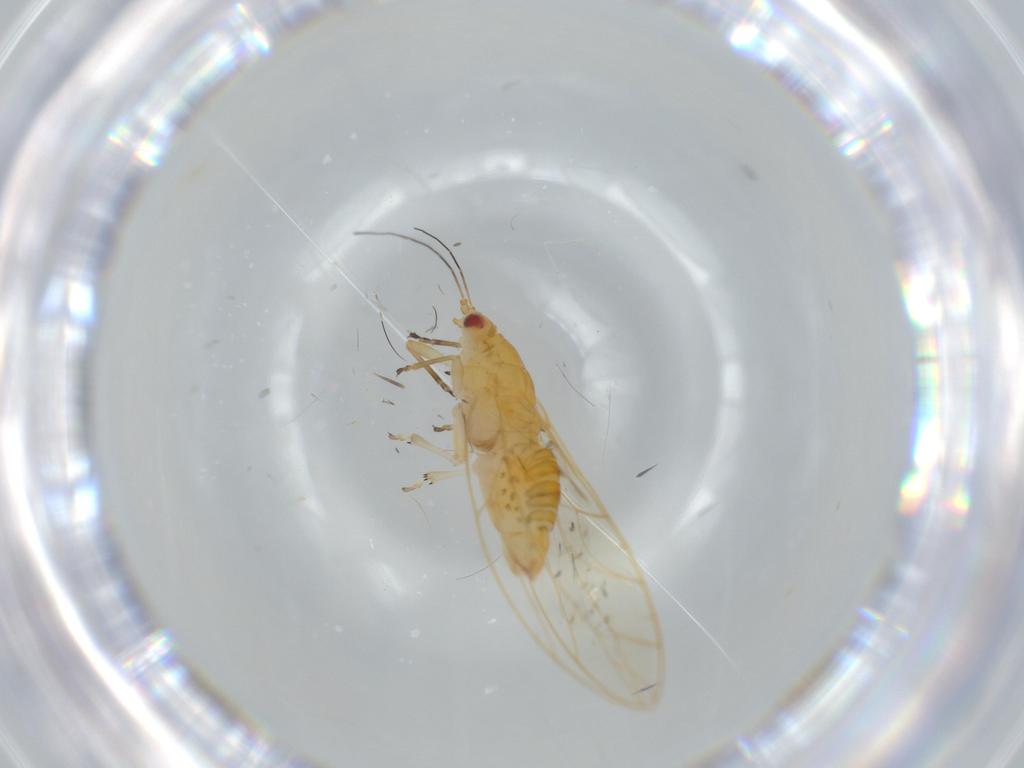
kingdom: Animalia
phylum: Arthropoda
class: Insecta
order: Hemiptera
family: Triozidae
